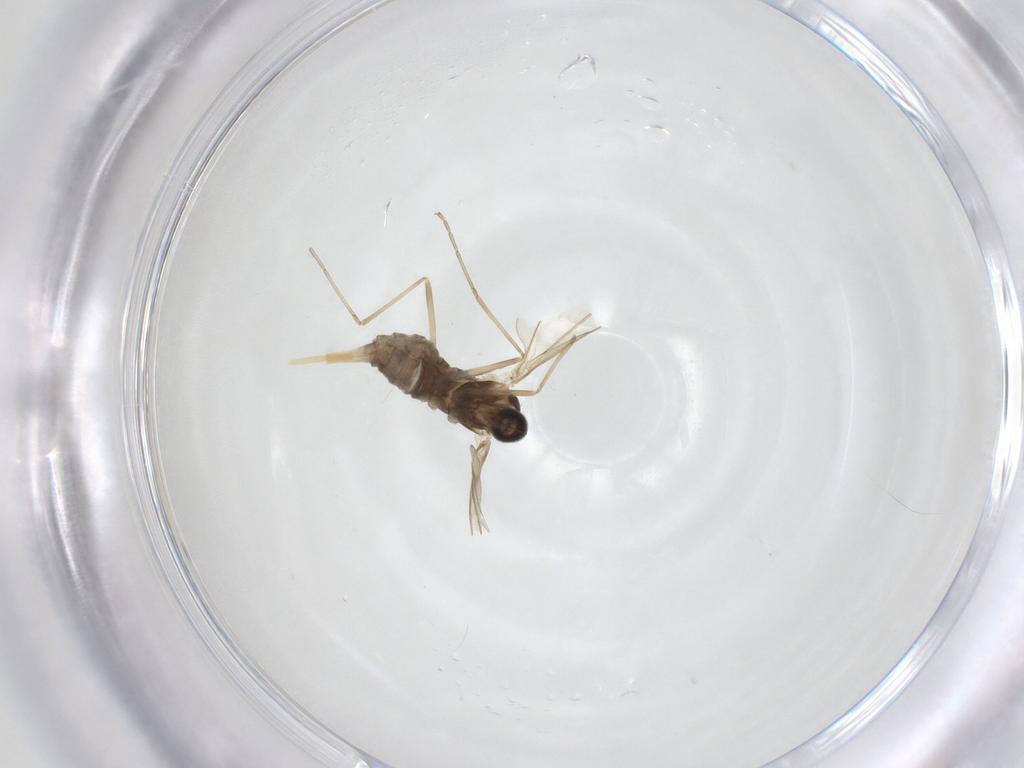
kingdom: Animalia
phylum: Arthropoda
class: Insecta
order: Diptera
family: Cecidomyiidae
